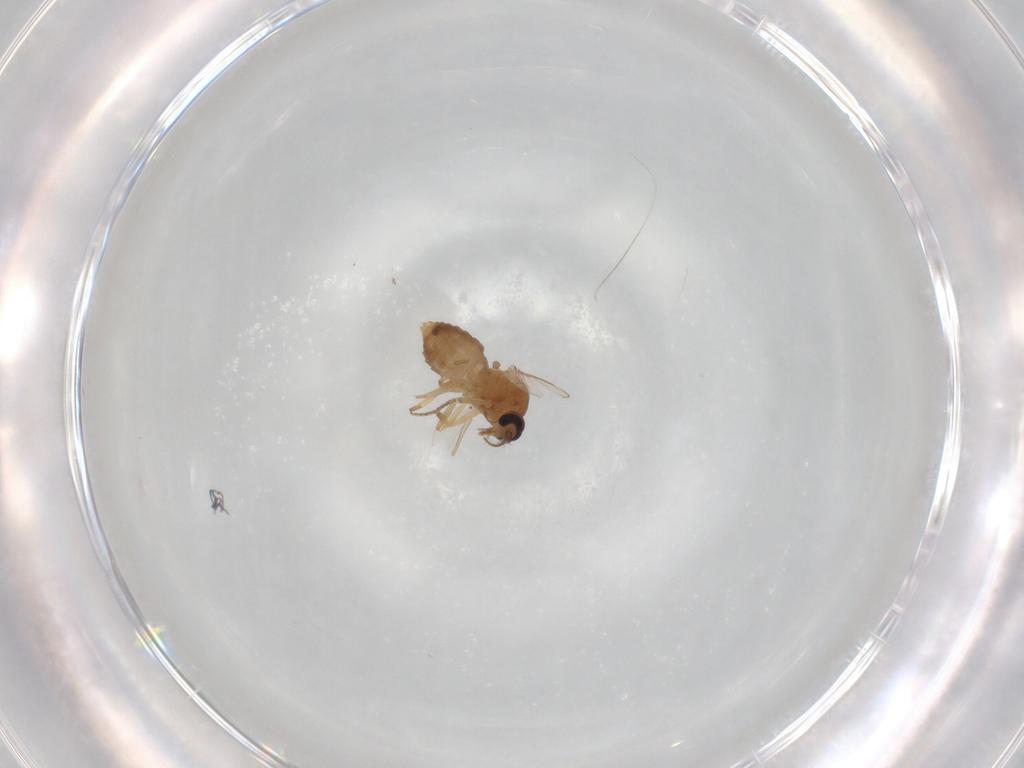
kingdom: Animalia
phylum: Arthropoda
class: Insecta
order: Diptera
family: Ceratopogonidae
